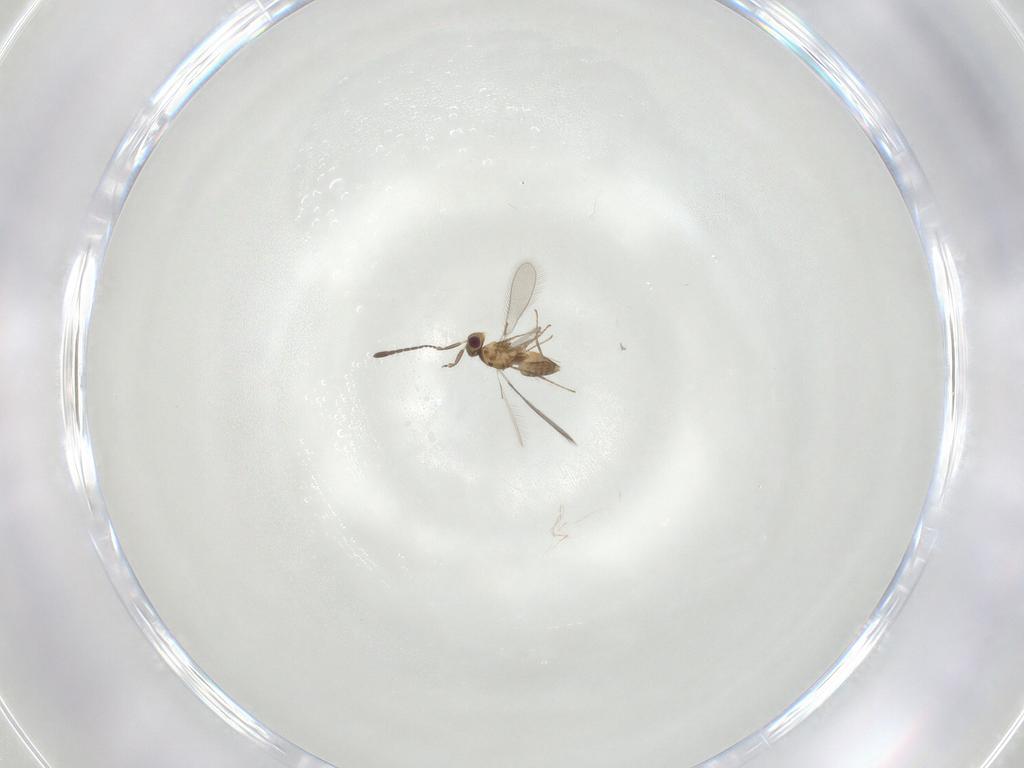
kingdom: Animalia
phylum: Arthropoda
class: Insecta
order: Hymenoptera
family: Mymaridae
